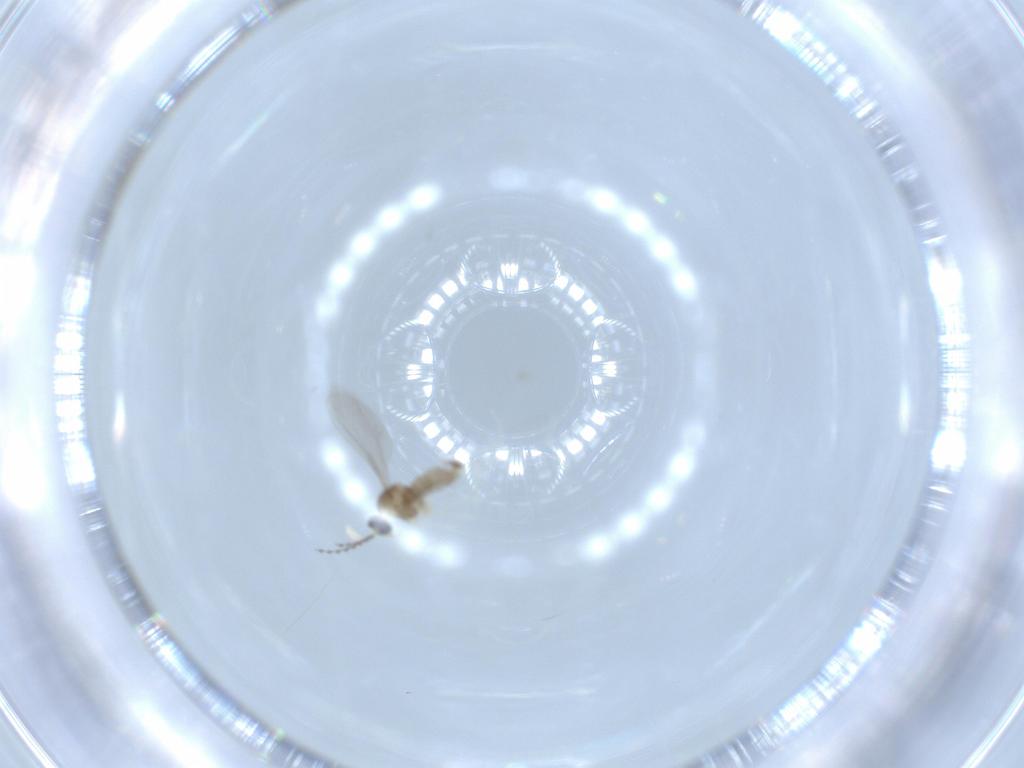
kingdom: Animalia
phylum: Arthropoda
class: Insecta
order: Diptera
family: Cecidomyiidae
